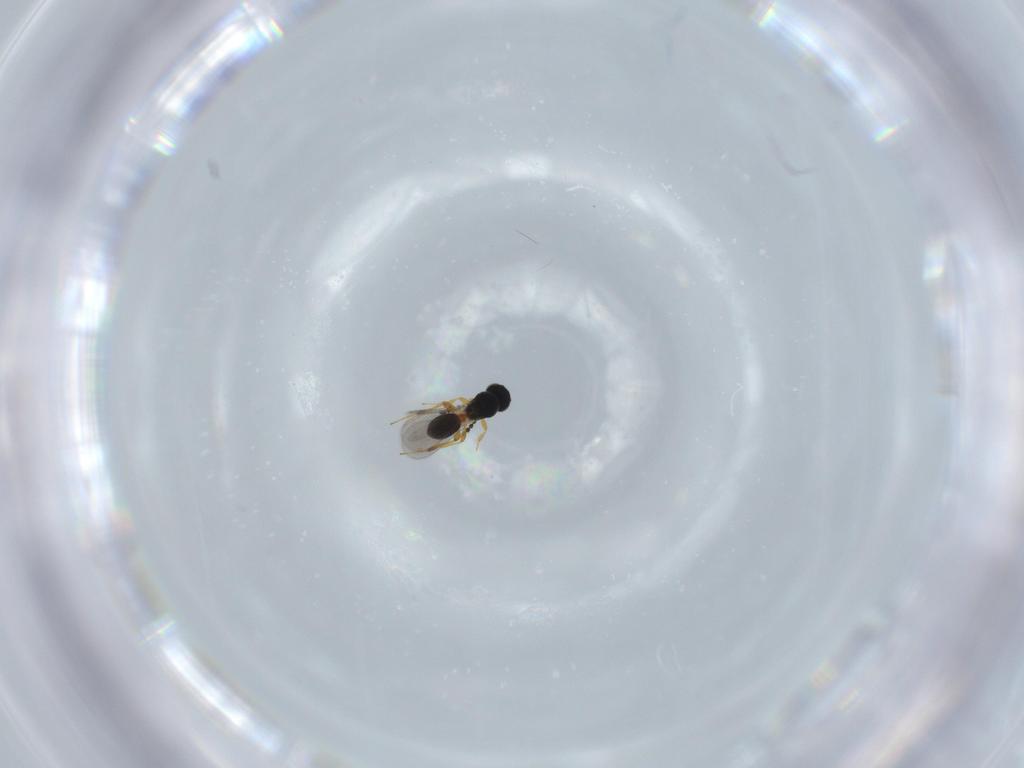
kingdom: Animalia
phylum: Arthropoda
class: Insecta
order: Hymenoptera
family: Platygastridae
